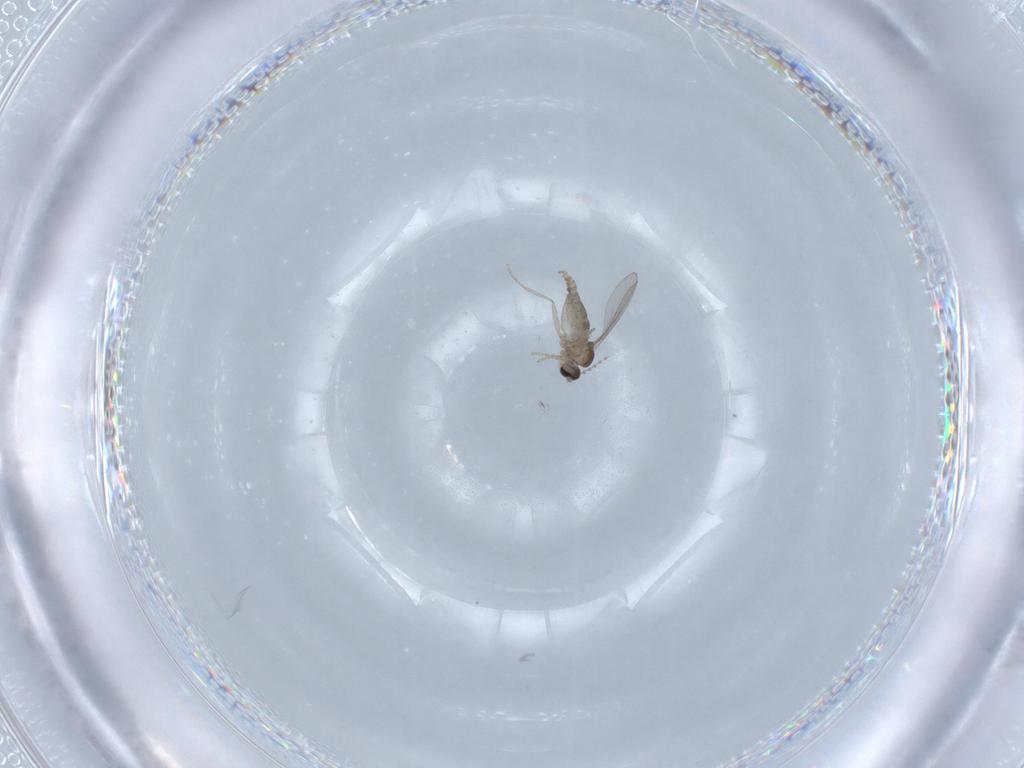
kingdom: Animalia
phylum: Arthropoda
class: Insecta
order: Diptera
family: Cecidomyiidae
